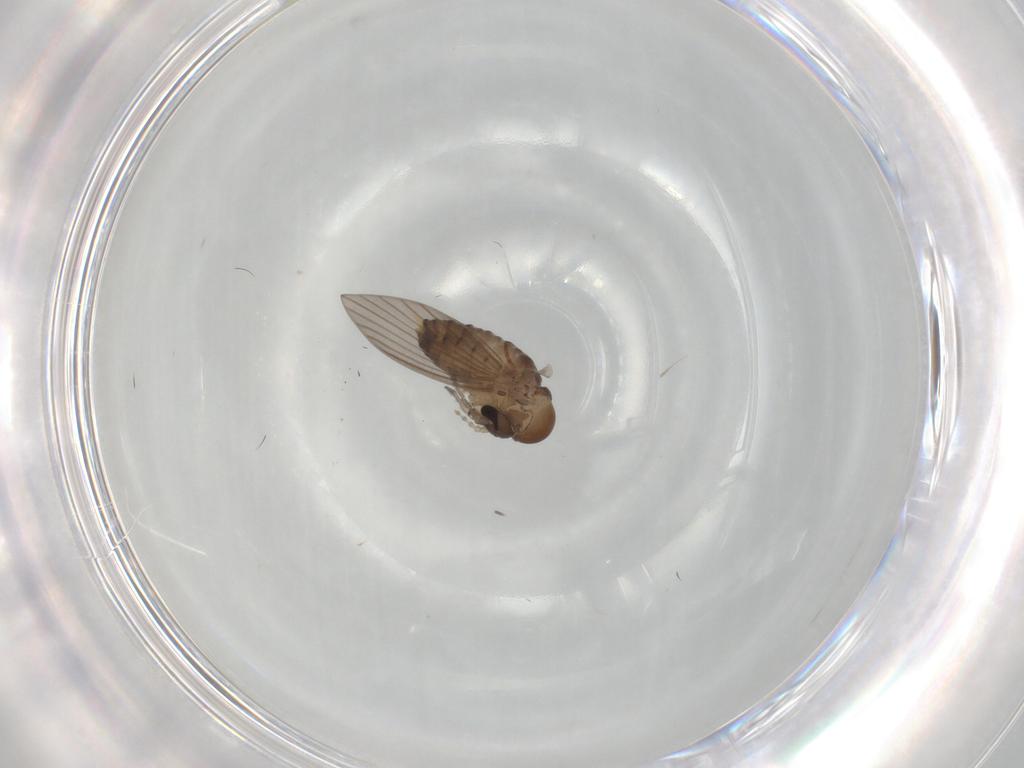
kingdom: Animalia
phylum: Arthropoda
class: Insecta
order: Diptera
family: Psychodidae
